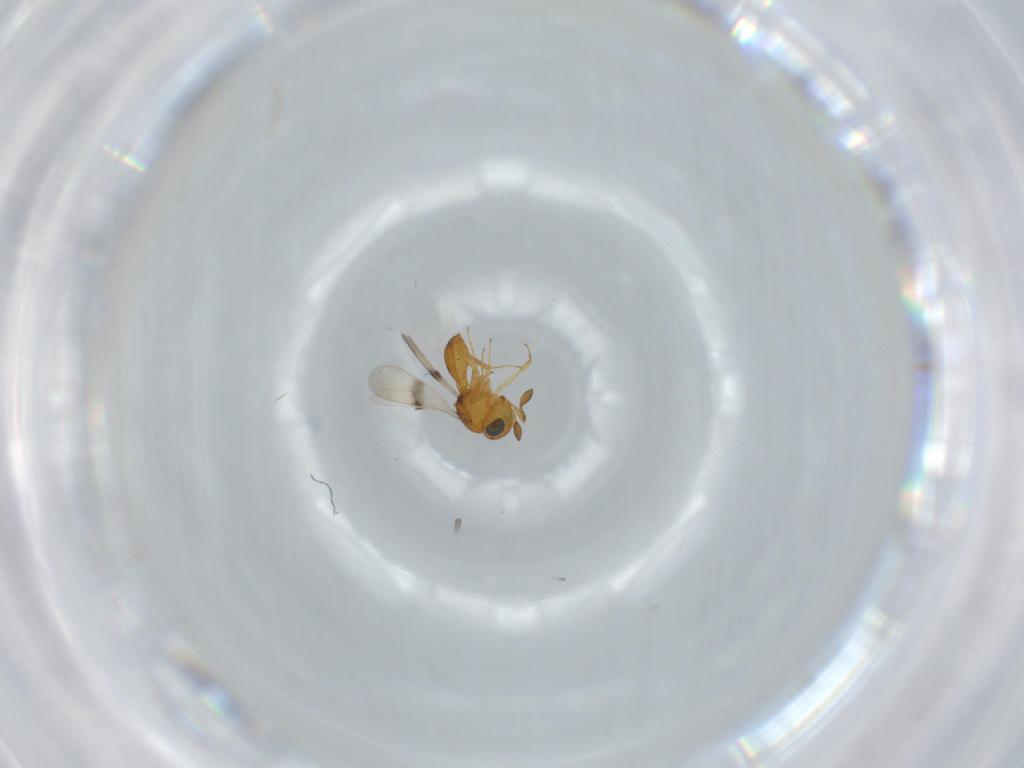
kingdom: Animalia
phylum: Arthropoda
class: Insecta
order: Hymenoptera
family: Scelionidae
